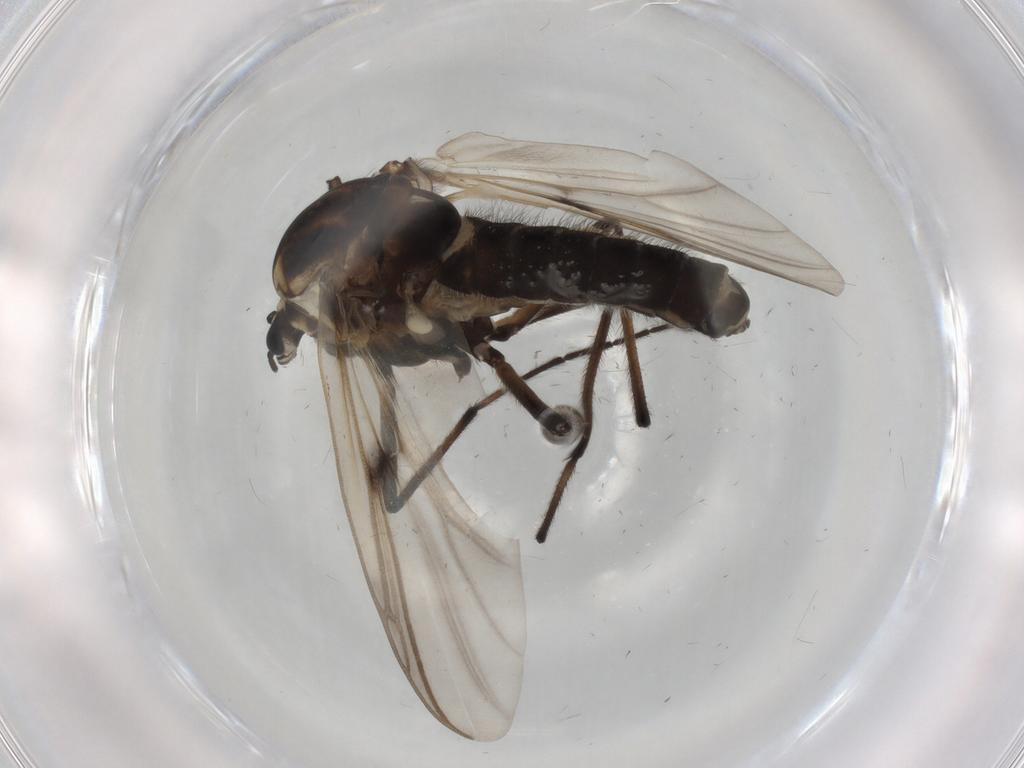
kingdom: Animalia
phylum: Arthropoda
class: Insecta
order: Diptera
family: Chironomidae
